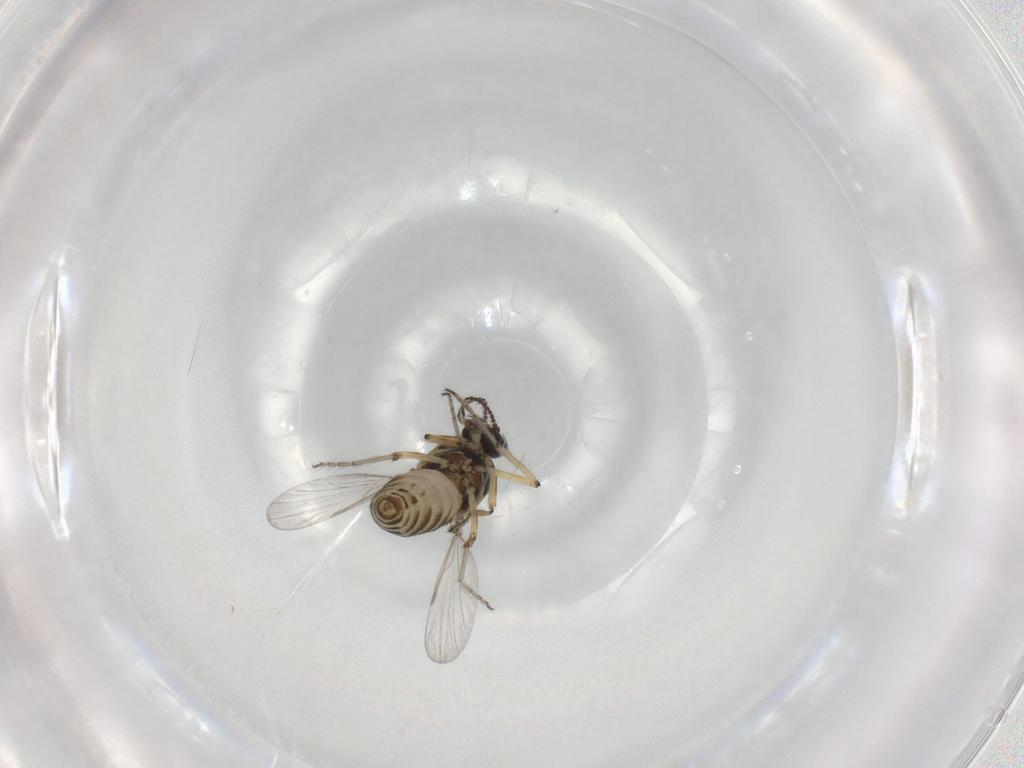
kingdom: Animalia
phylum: Arthropoda
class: Insecta
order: Diptera
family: Ceratopogonidae
